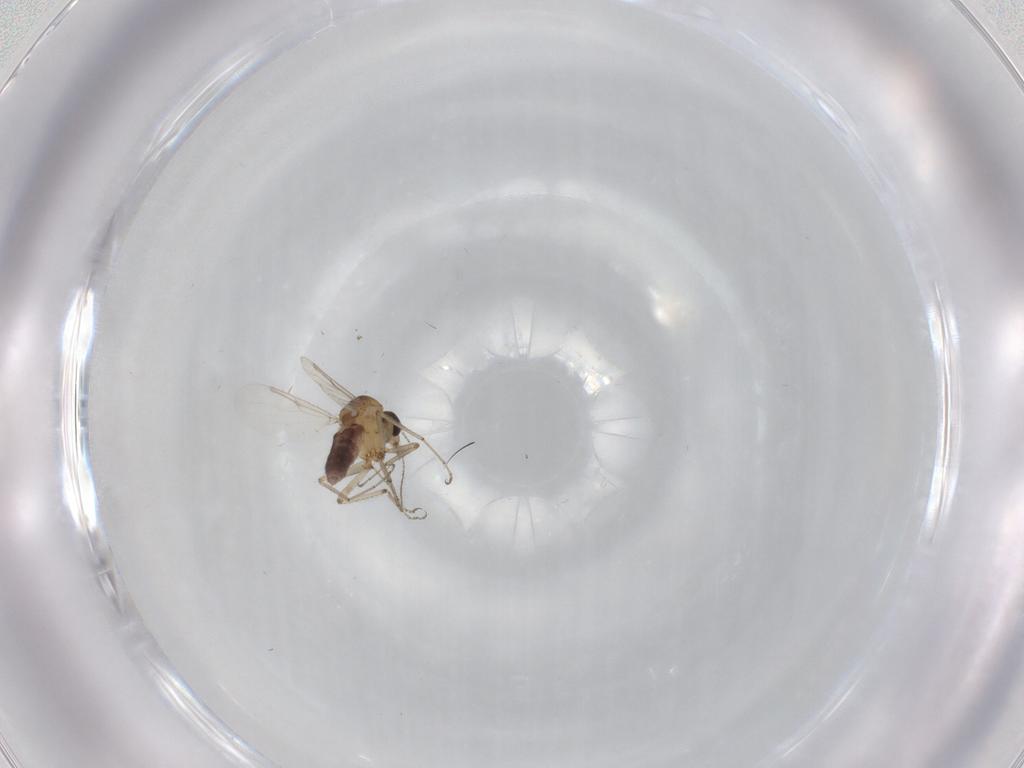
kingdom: Animalia
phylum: Arthropoda
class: Insecta
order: Diptera
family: Ceratopogonidae
